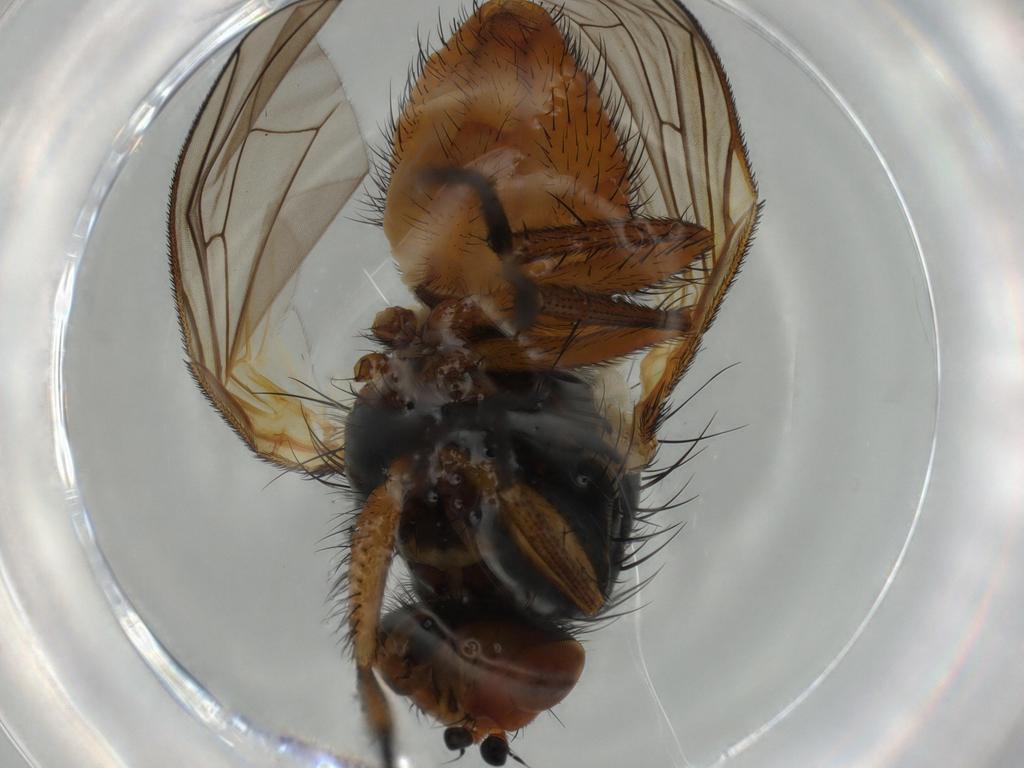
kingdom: Animalia
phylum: Arthropoda
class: Insecta
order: Diptera
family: Anthomyiidae
